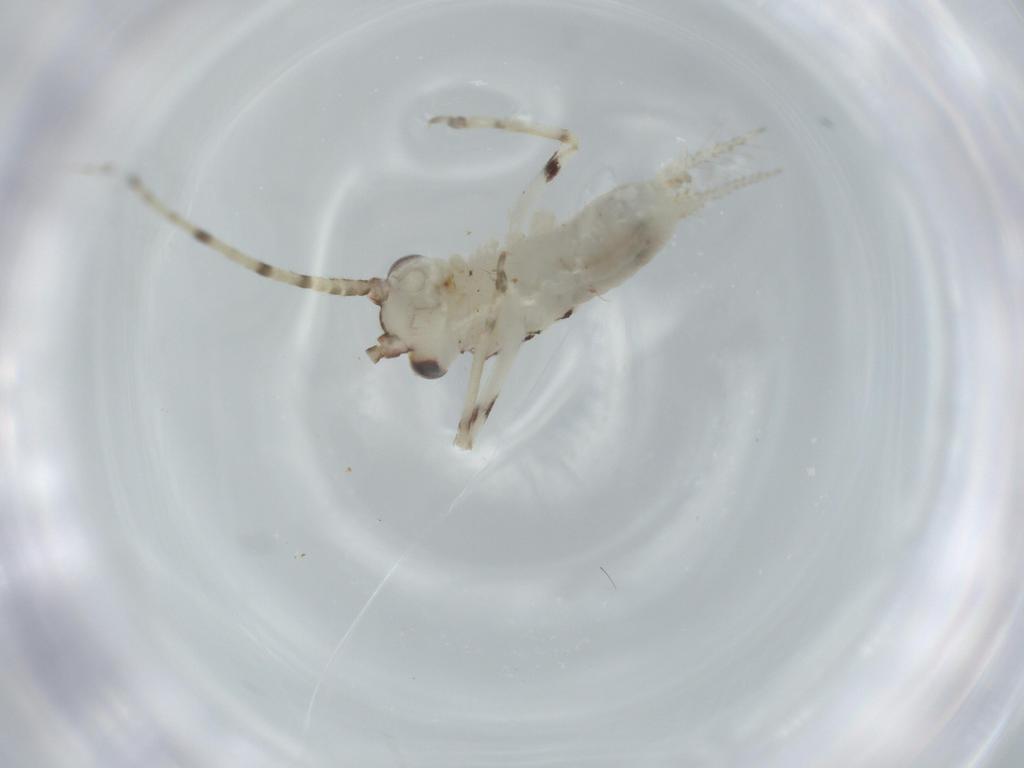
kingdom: Animalia
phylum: Arthropoda
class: Insecta
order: Orthoptera
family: Trigonidiidae
